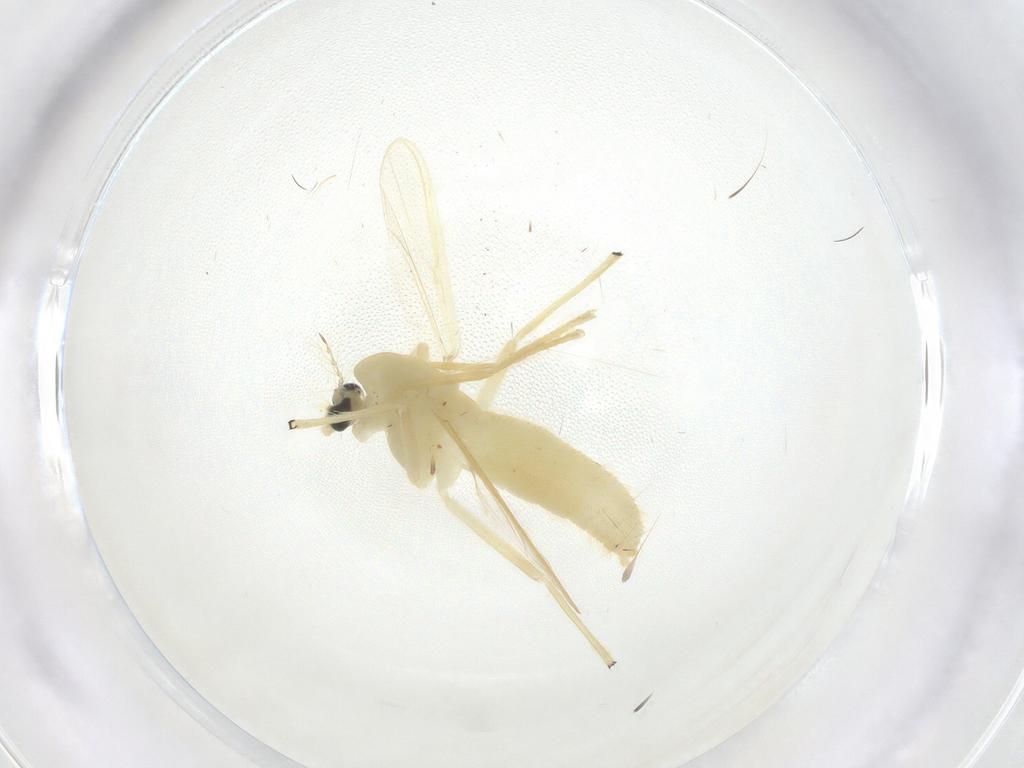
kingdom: Animalia
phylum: Arthropoda
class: Insecta
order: Diptera
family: Chironomidae
